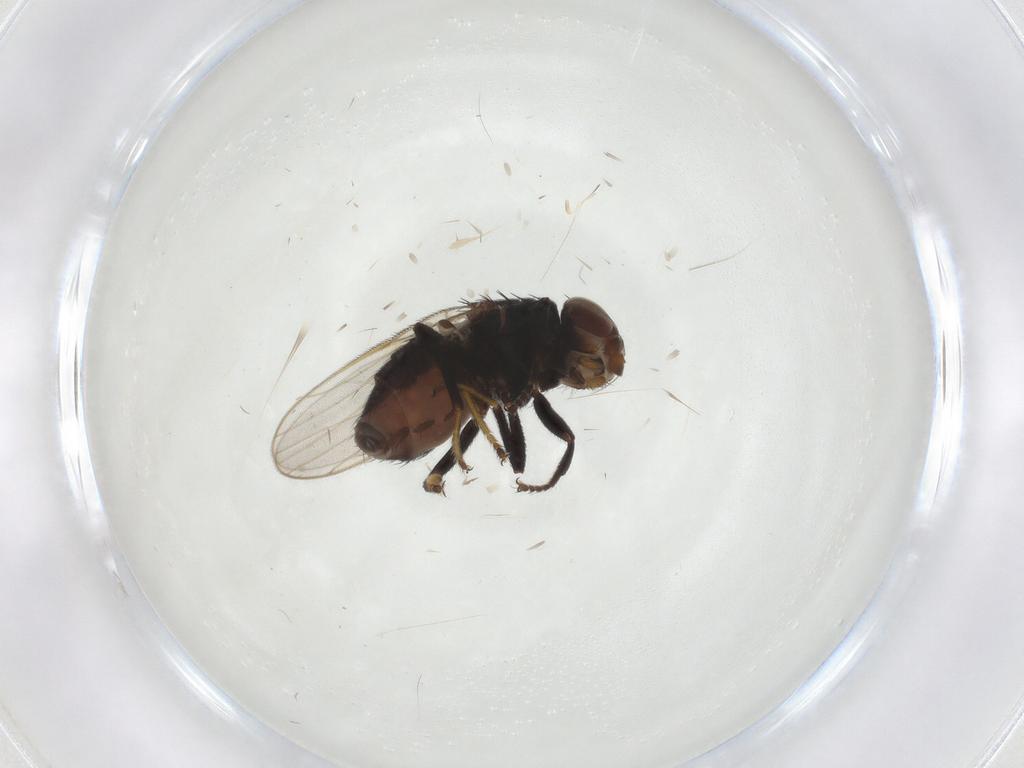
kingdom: Animalia
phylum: Arthropoda
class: Insecta
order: Diptera
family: Chloropidae
